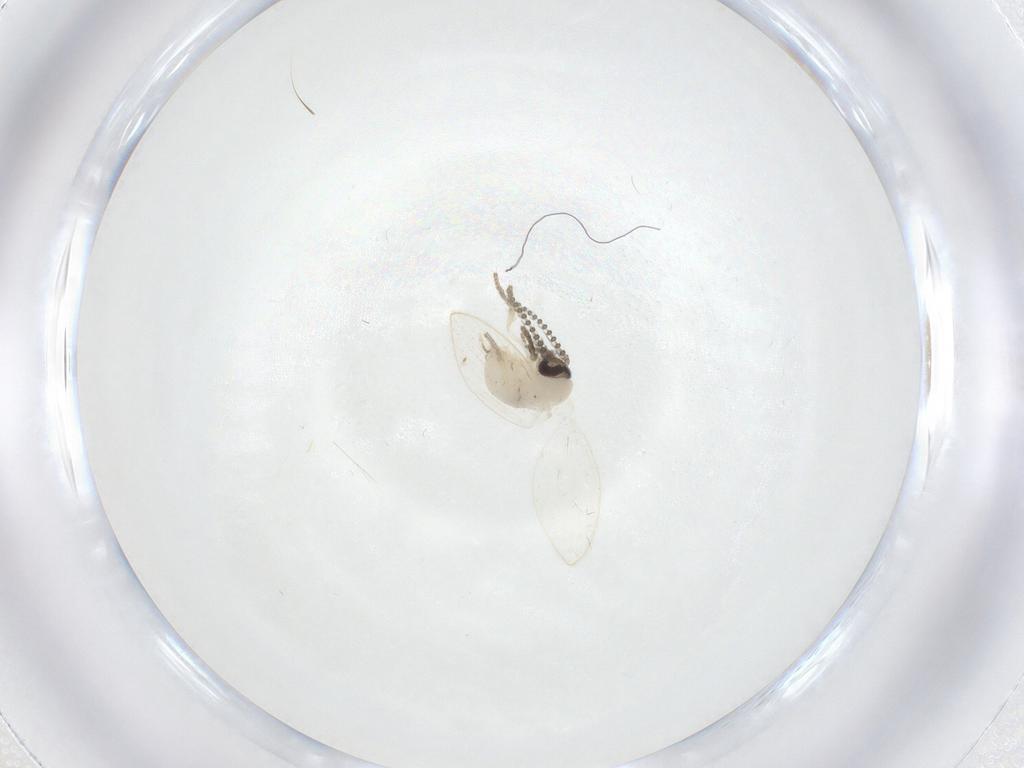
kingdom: Animalia
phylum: Arthropoda
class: Insecta
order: Diptera
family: Psychodidae
